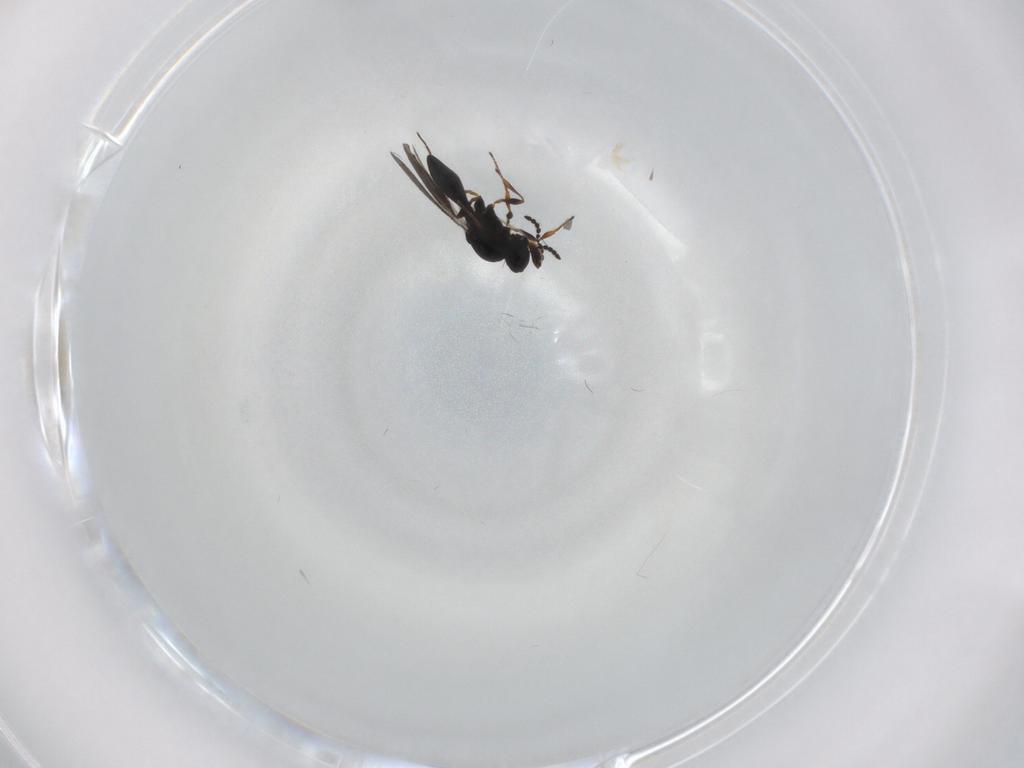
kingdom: Animalia
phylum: Arthropoda
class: Insecta
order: Hymenoptera
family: Platygastridae
